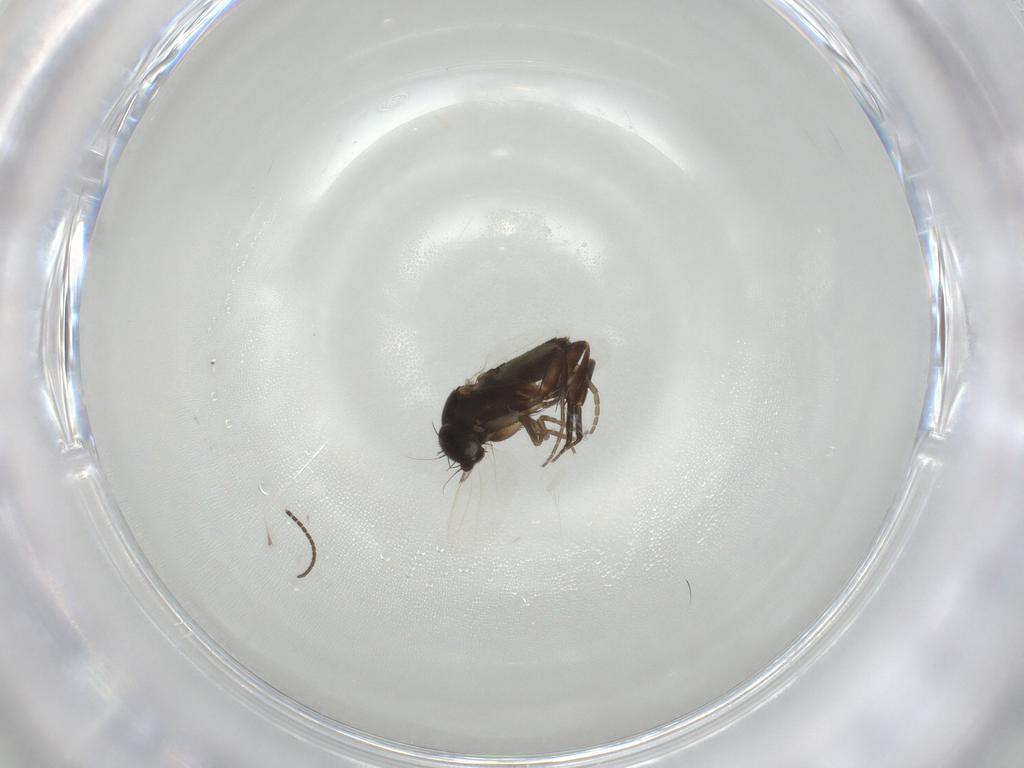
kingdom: Animalia
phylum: Arthropoda
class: Insecta
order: Diptera
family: Sciaridae
